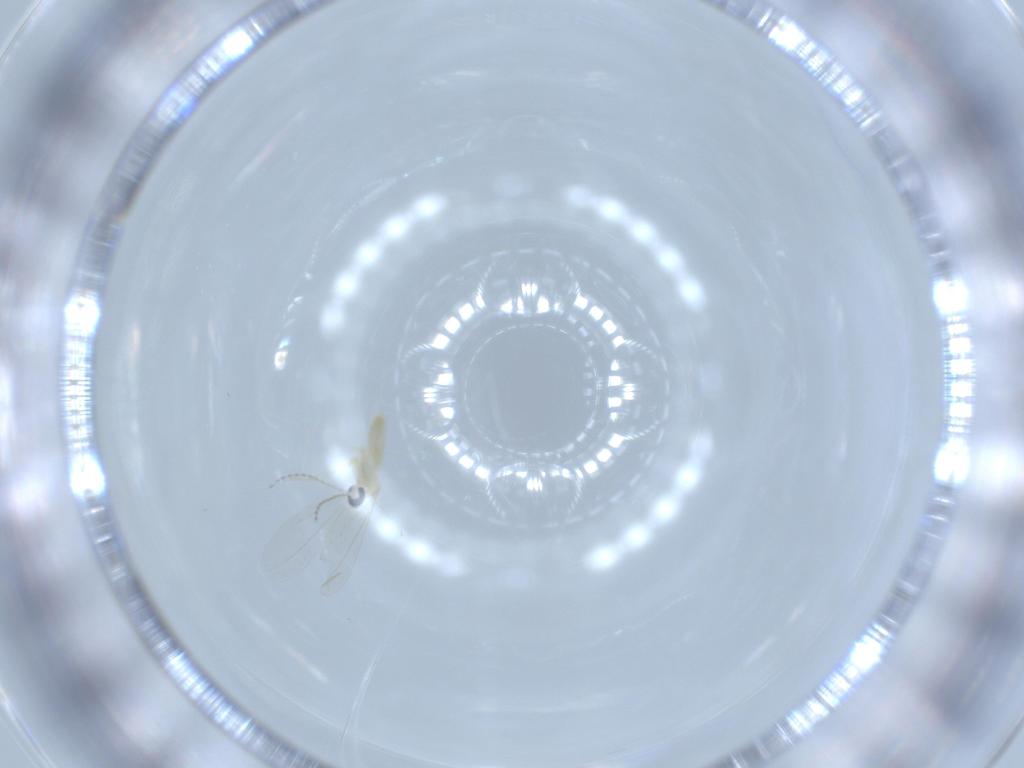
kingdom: Animalia
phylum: Arthropoda
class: Insecta
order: Diptera
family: Cecidomyiidae
